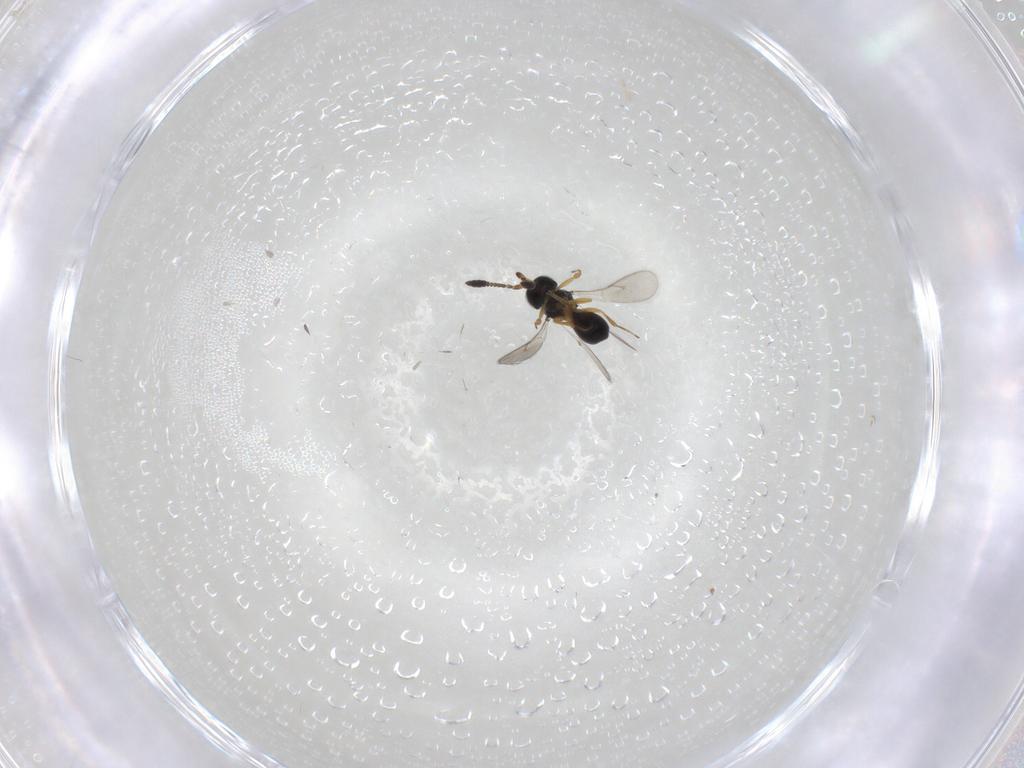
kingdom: Animalia
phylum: Arthropoda
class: Insecta
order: Hymenoptera
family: Scelionidae
